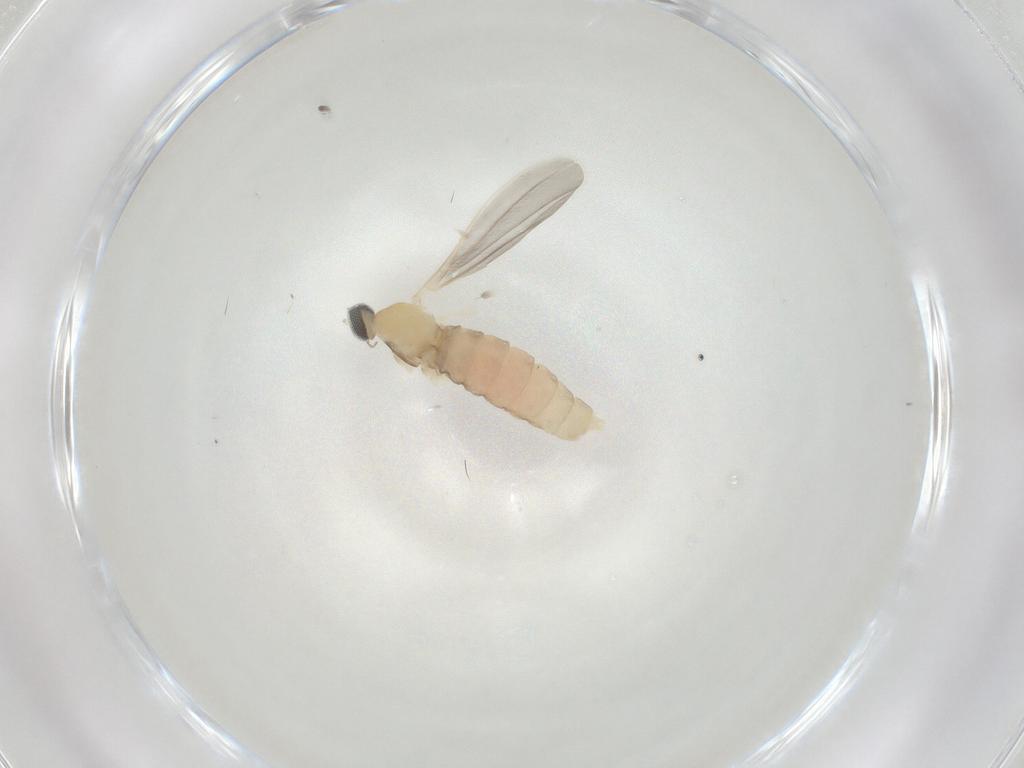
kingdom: Animalia
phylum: Arthropoda
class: Insecta
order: Diptera
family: Cecidomyiidae
